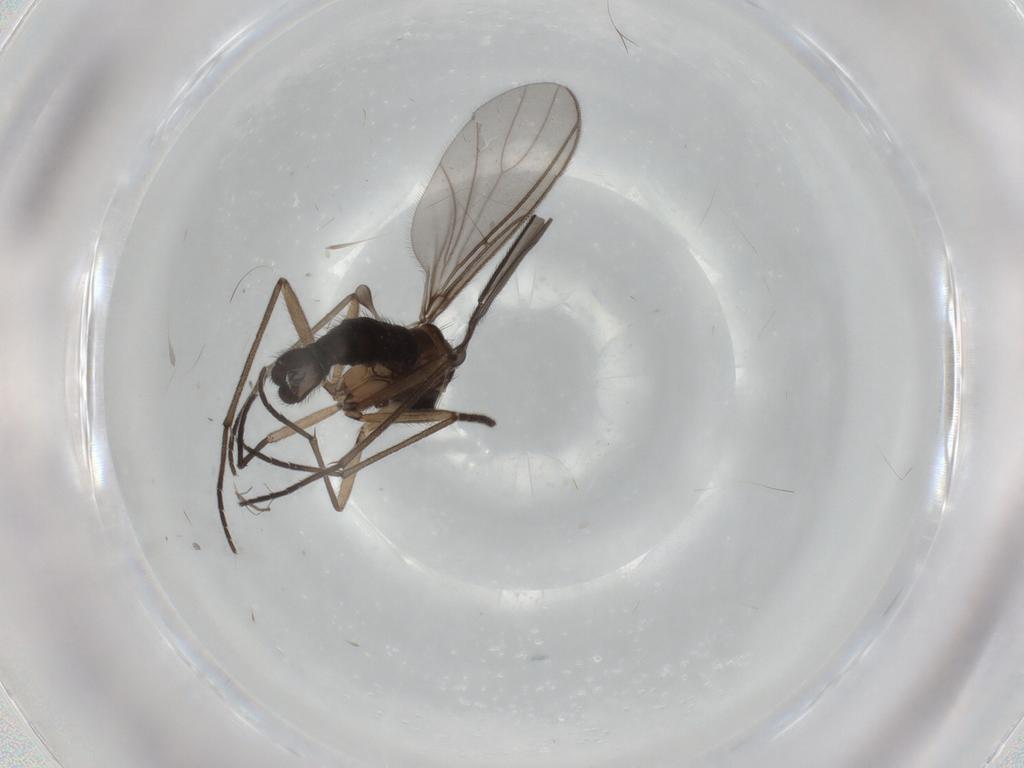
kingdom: Animalia
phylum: Arthropoda
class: Insecta
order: Diptera
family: Sciaridae
